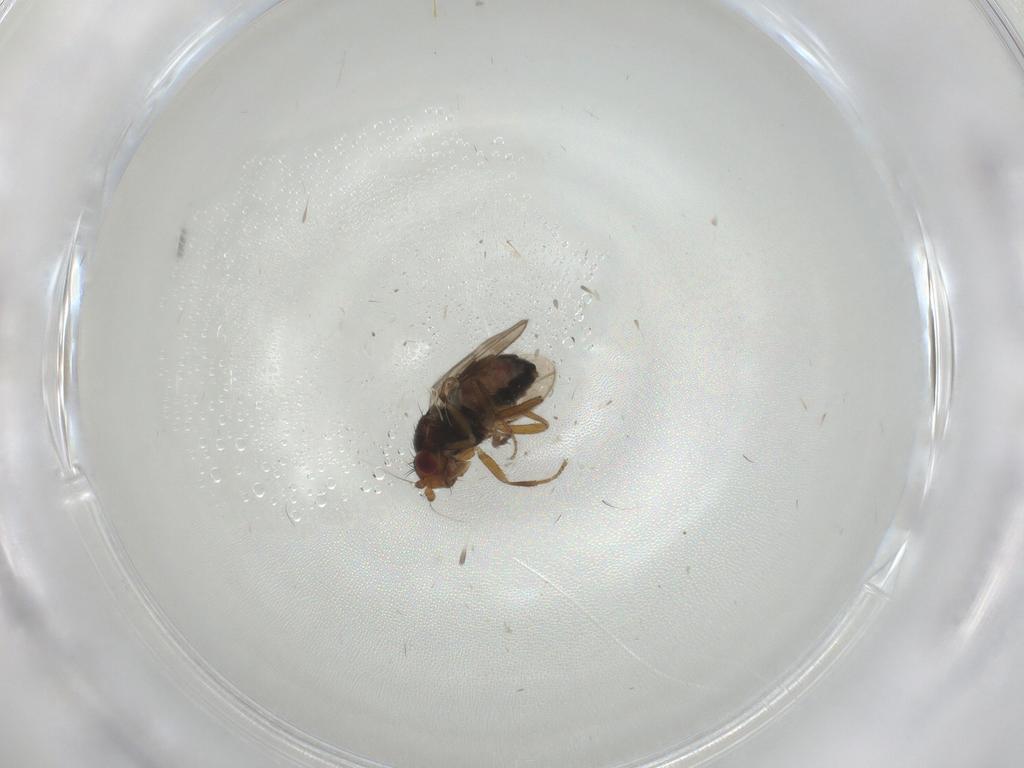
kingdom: Animalia
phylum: Arthropoda
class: Insecta
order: Diptera
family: Sphaeroceridae
